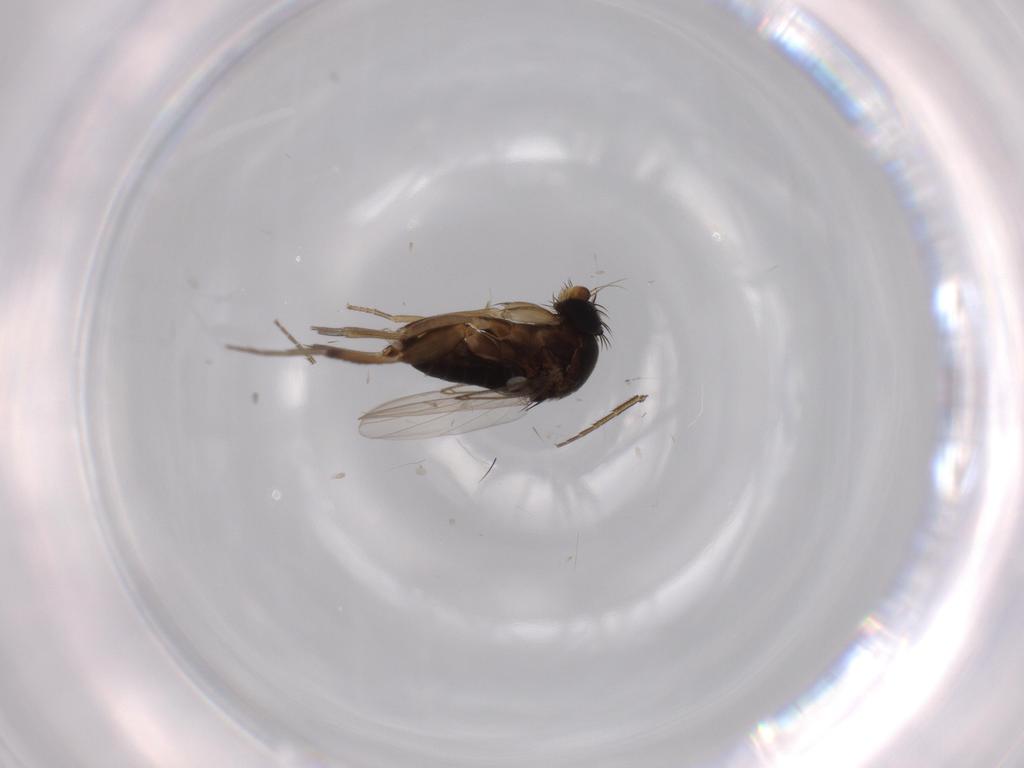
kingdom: Animalia
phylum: Arthropoda
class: Insecta
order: Diptera
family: Phoridae
